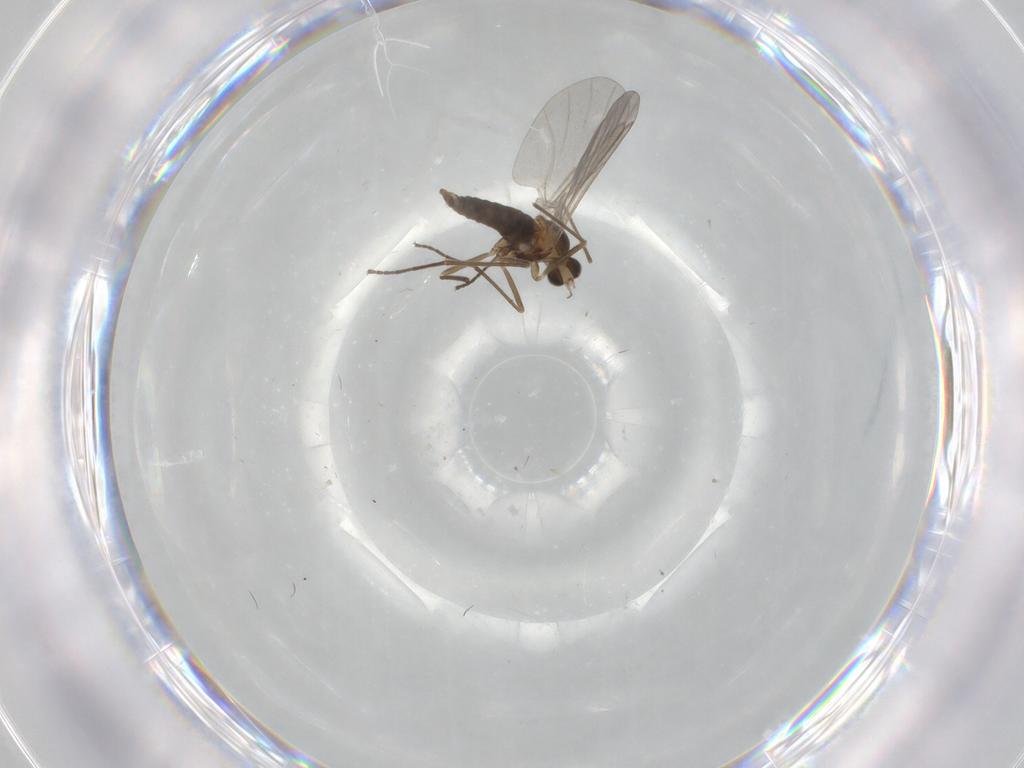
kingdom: Animalia
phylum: Arthropoda
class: Insecta
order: Diptera
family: Cecidomyiidae
